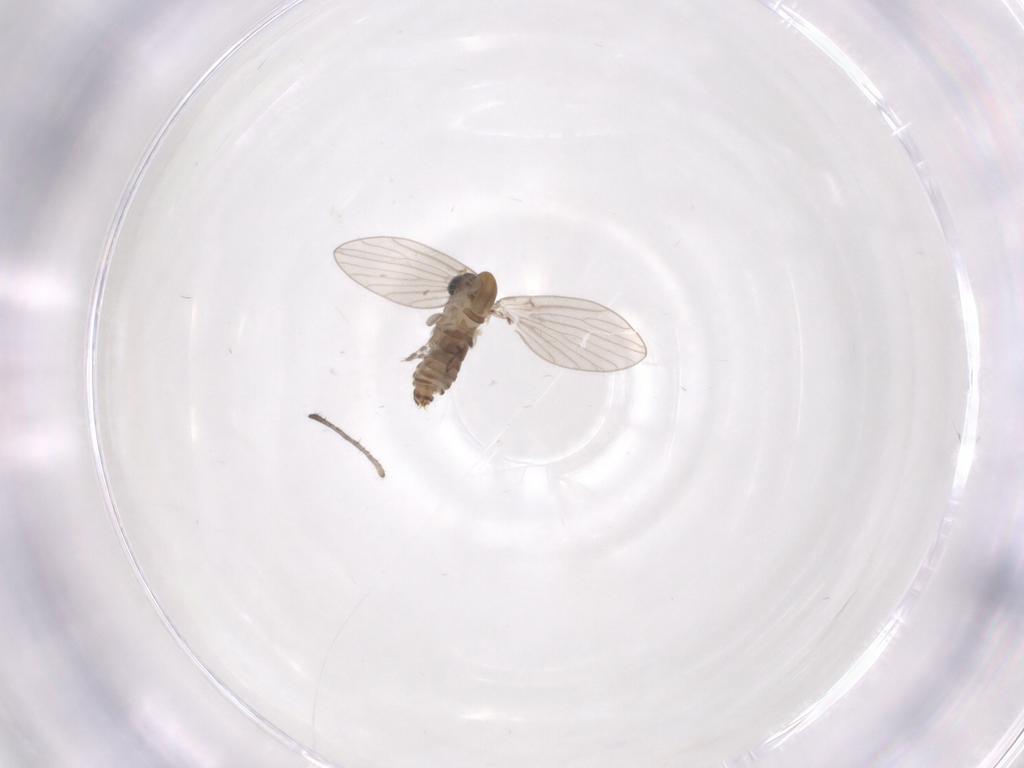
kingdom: Animalia
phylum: Arthropoda
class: Insecta
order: Diptera
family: Psychodidae
